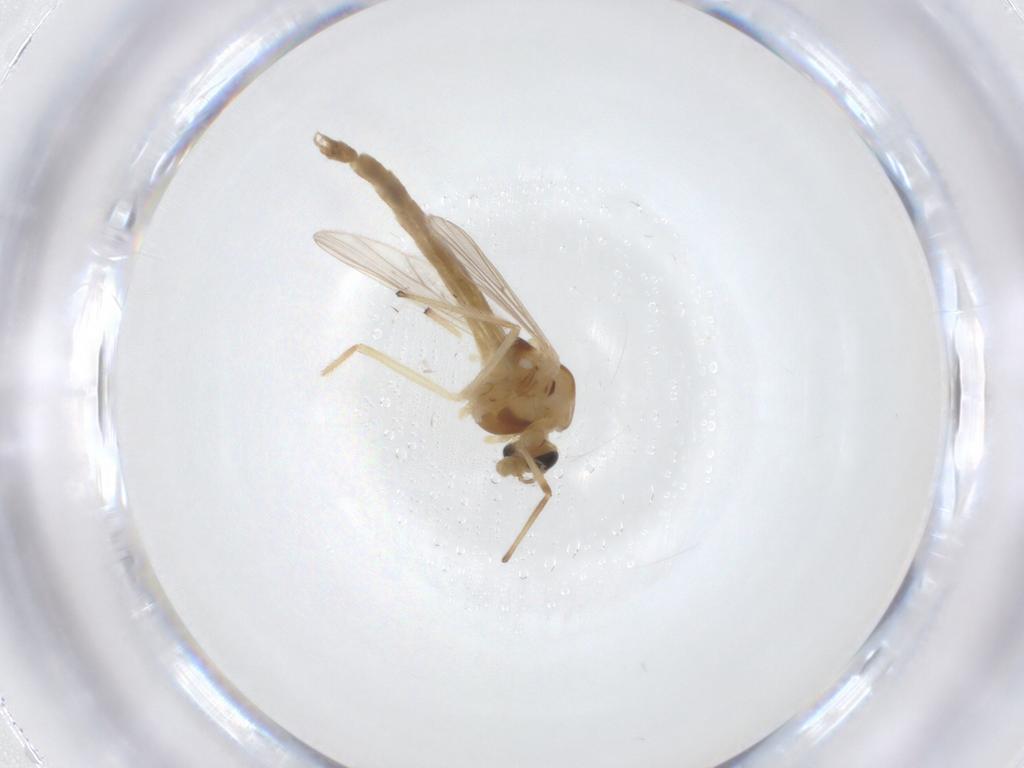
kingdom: Animalia
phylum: Arthropoda
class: Insecta
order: Diptera
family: Chironomidae
